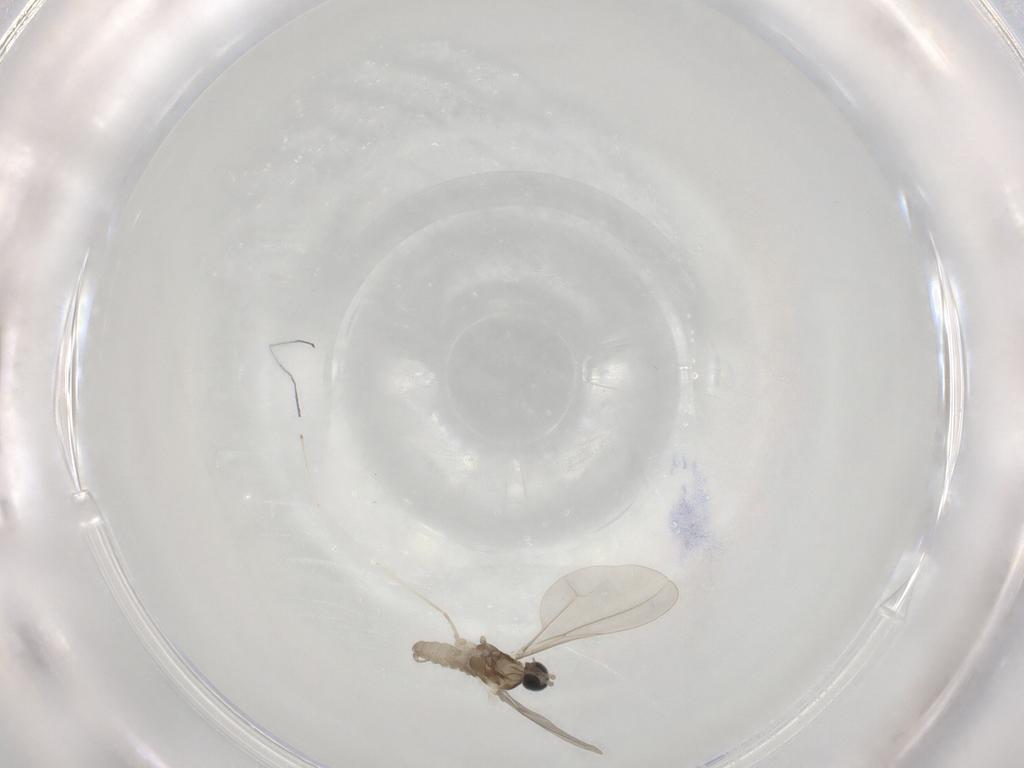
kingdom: Animalia
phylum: Arthropoda
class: Insecta
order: Diptera
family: Cecidomyiidae
